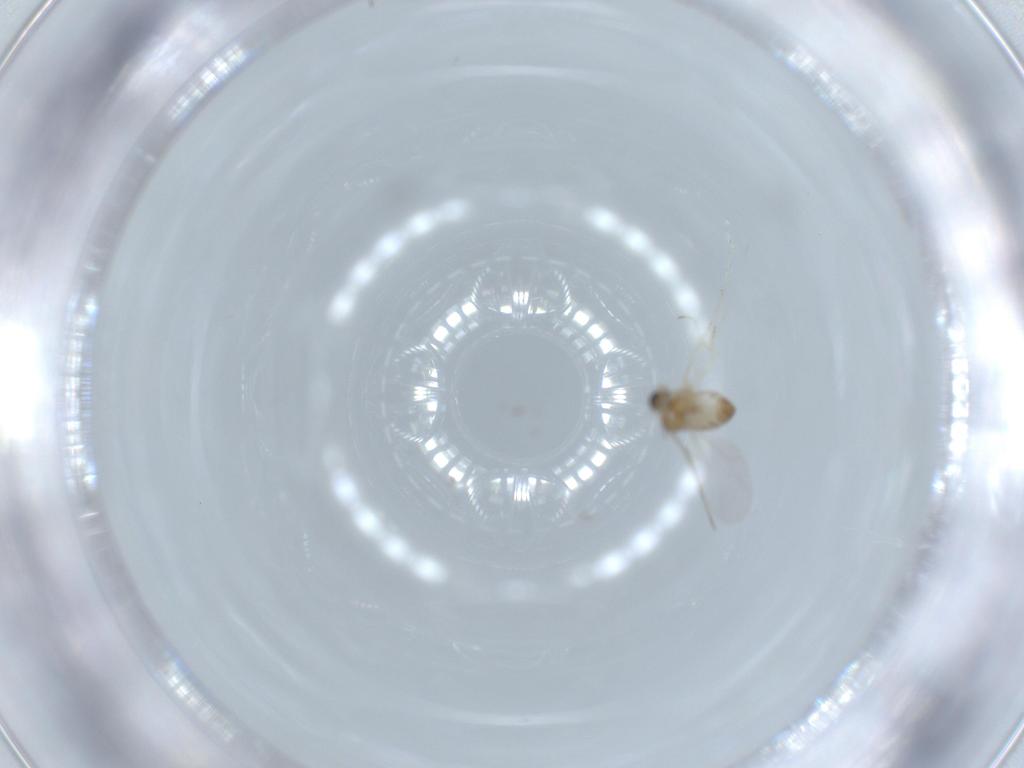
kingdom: Animalia
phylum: Arthropoda
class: Insecta
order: Diptera
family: Cecidomyiidae
